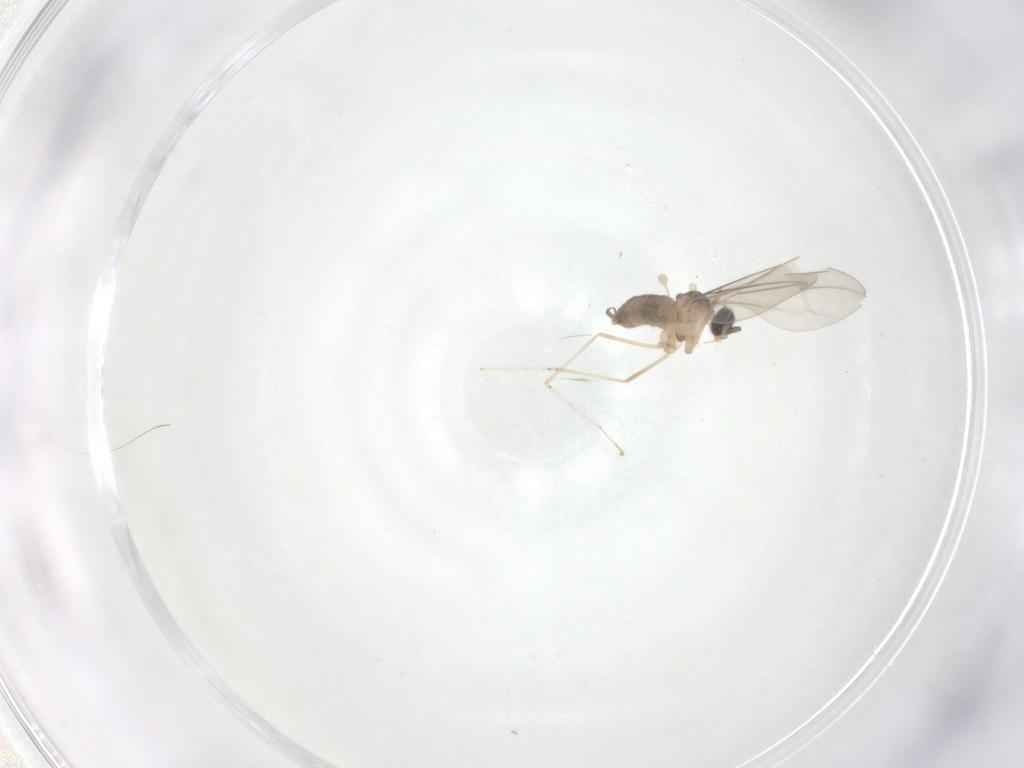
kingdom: Animalia
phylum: Arthropoda
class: Insecta
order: Diptera
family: Cecidomyiidae
